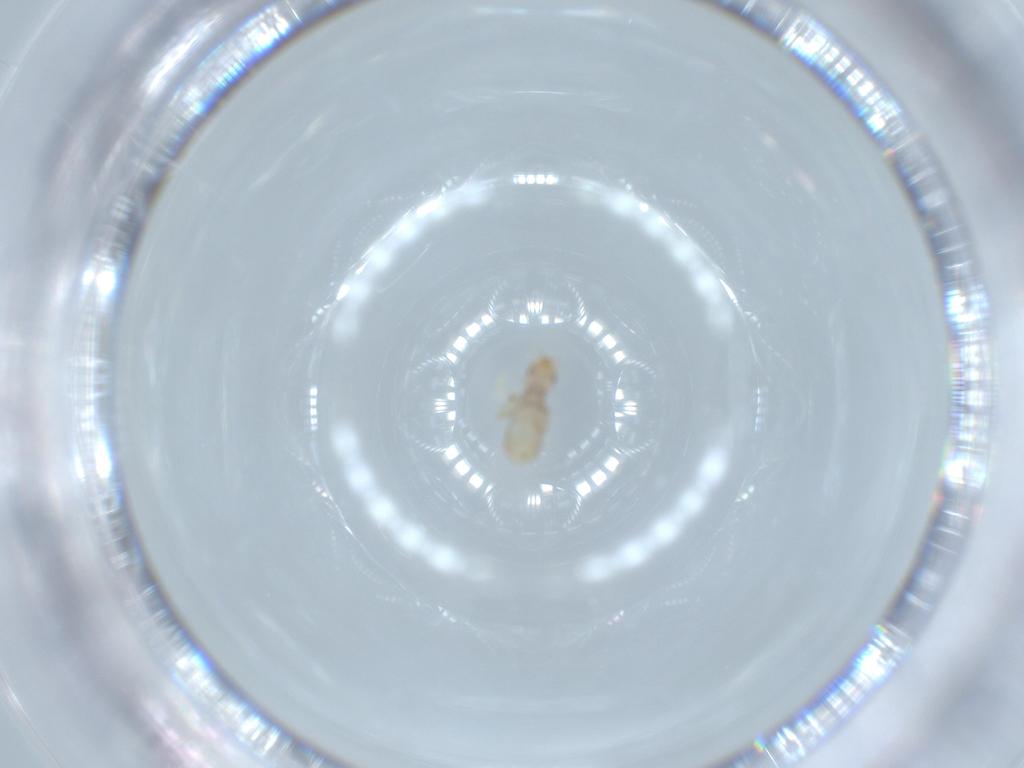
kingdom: Animalia
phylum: Arthropoda
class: Insecta
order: Psocodea
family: Liposcelididae
